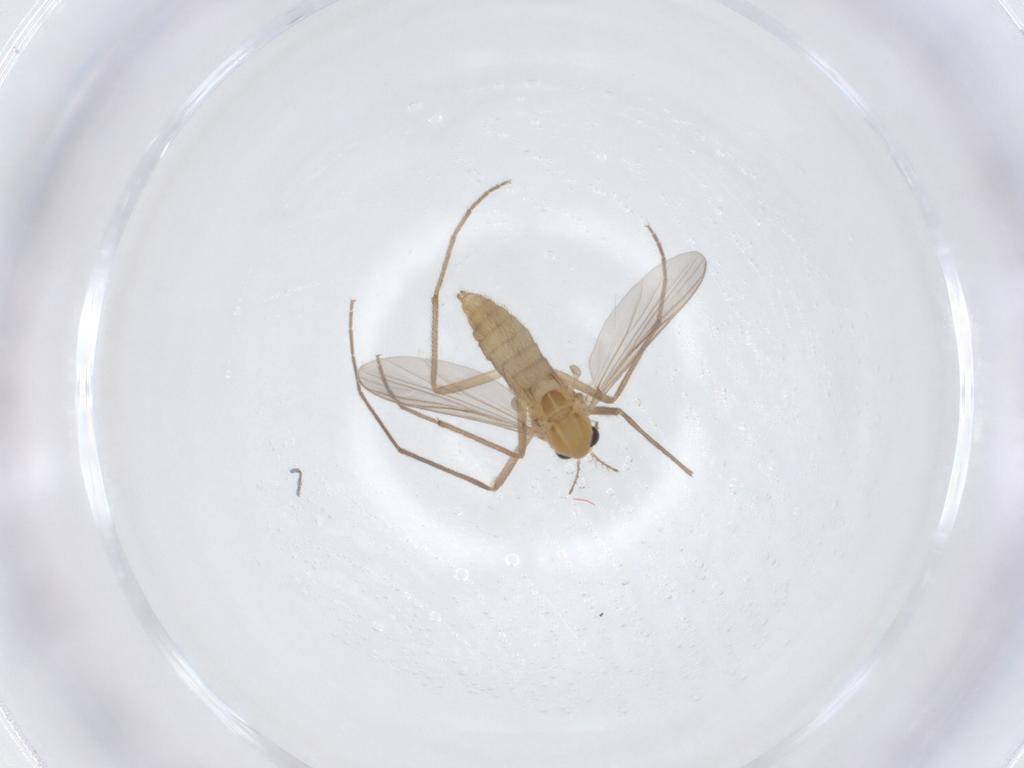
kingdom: Animalia
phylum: Arthropoda
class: Insecta
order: Diptera
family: Chironomidae
